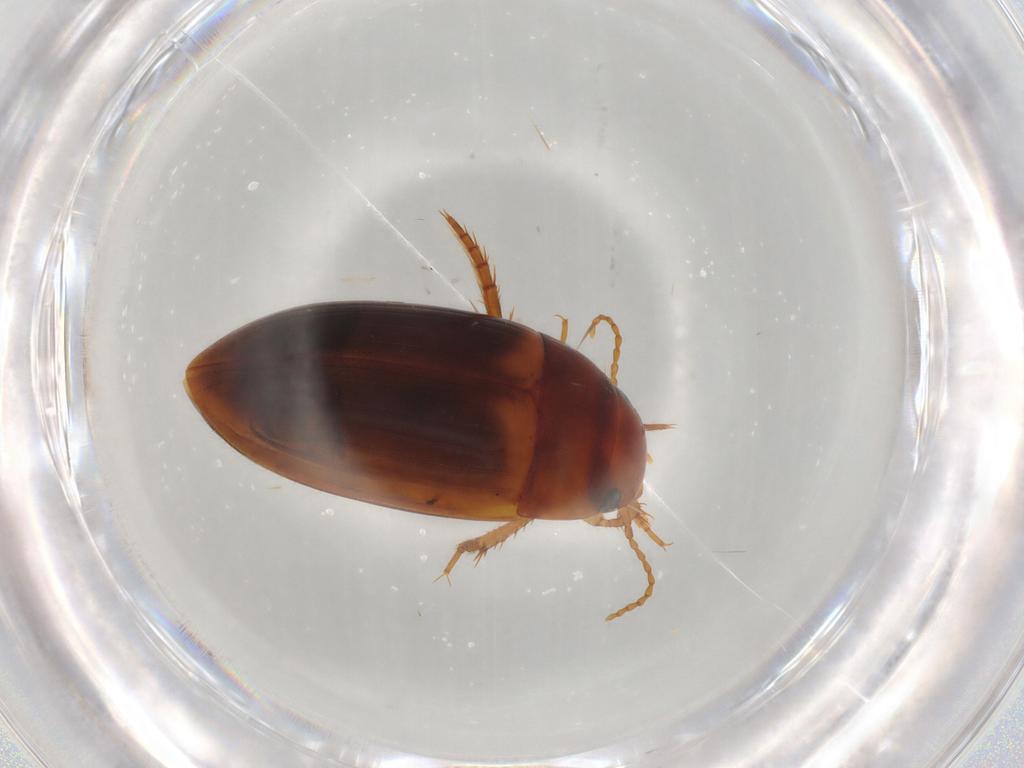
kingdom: Animalia
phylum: Arthropoda
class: Insecta
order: Coleoptera
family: Dytiscidae
